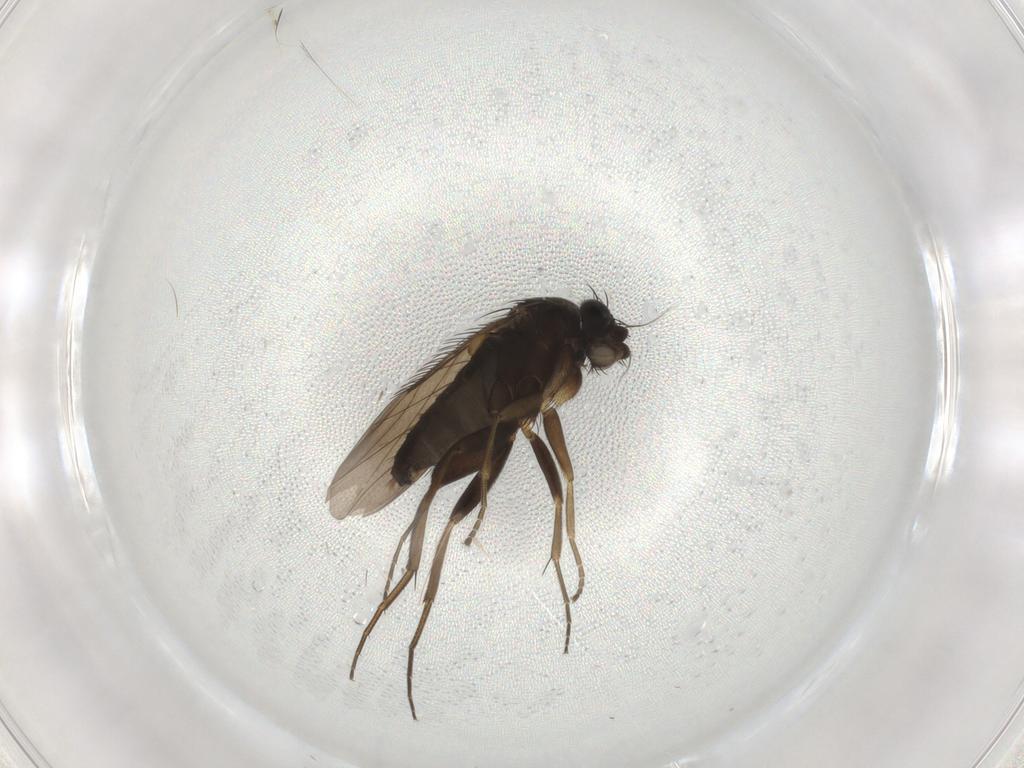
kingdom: Animalia
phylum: Arthropoda
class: Insecta
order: Diptera
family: Phoridae
